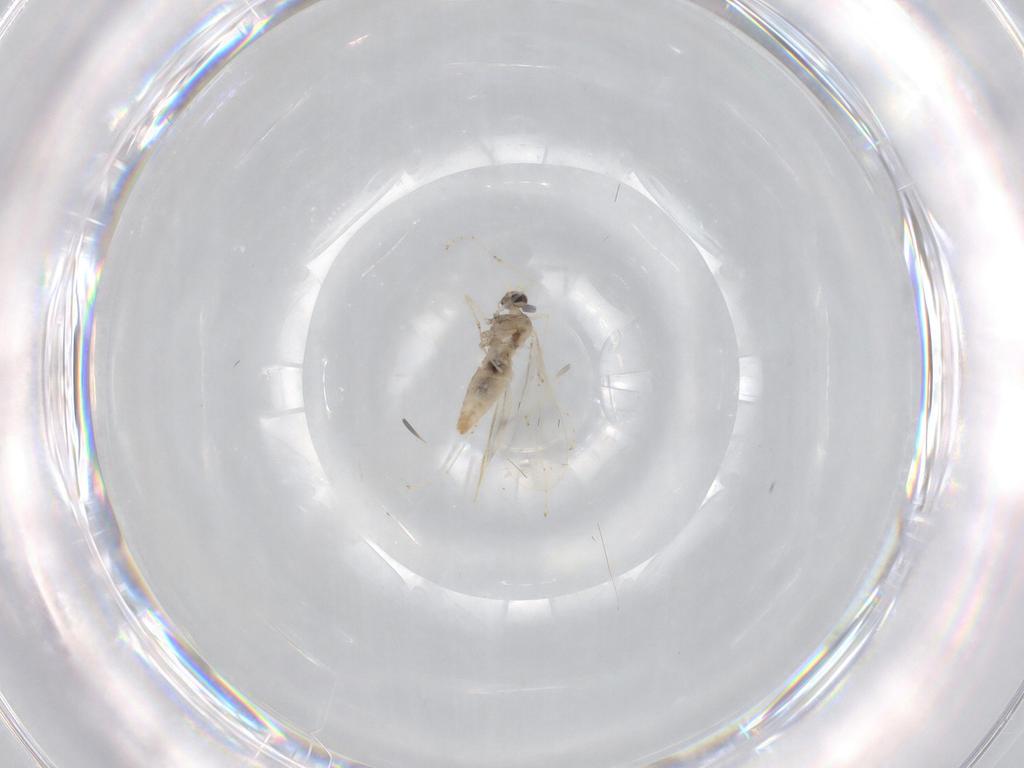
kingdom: Animalia
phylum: Arthropoda
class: Insecta
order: Diptera
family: Cecidomyiidae
